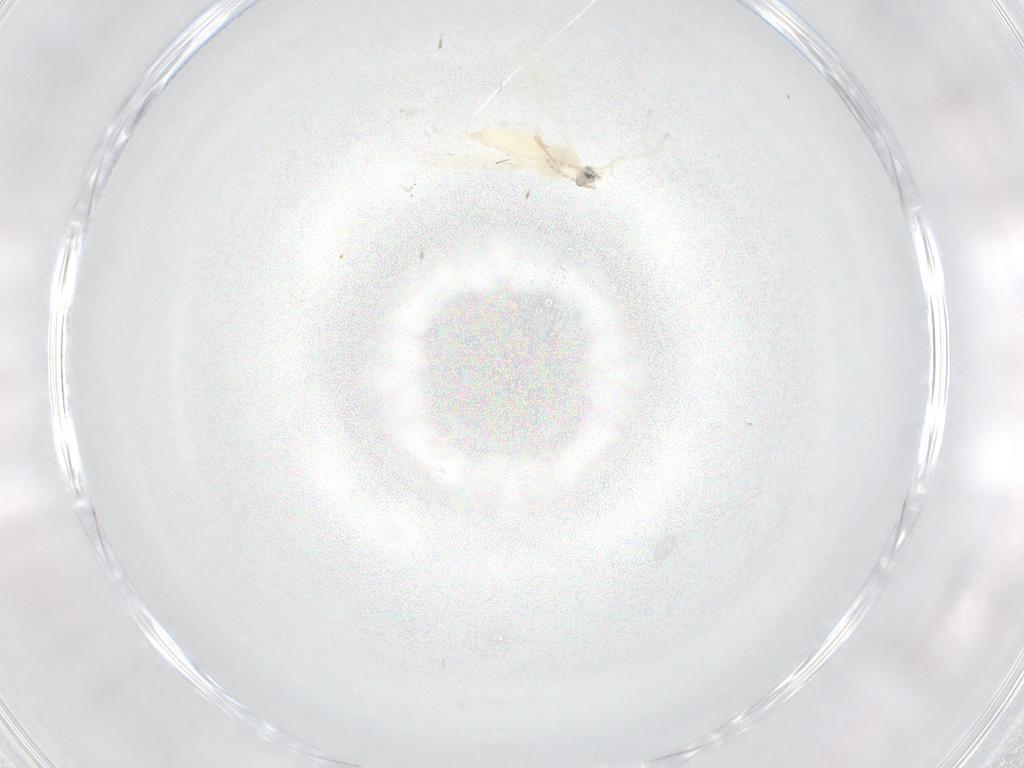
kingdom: Animalia
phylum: Arthropoda
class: Insecta
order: Diptera
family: Cecidomyiidae
